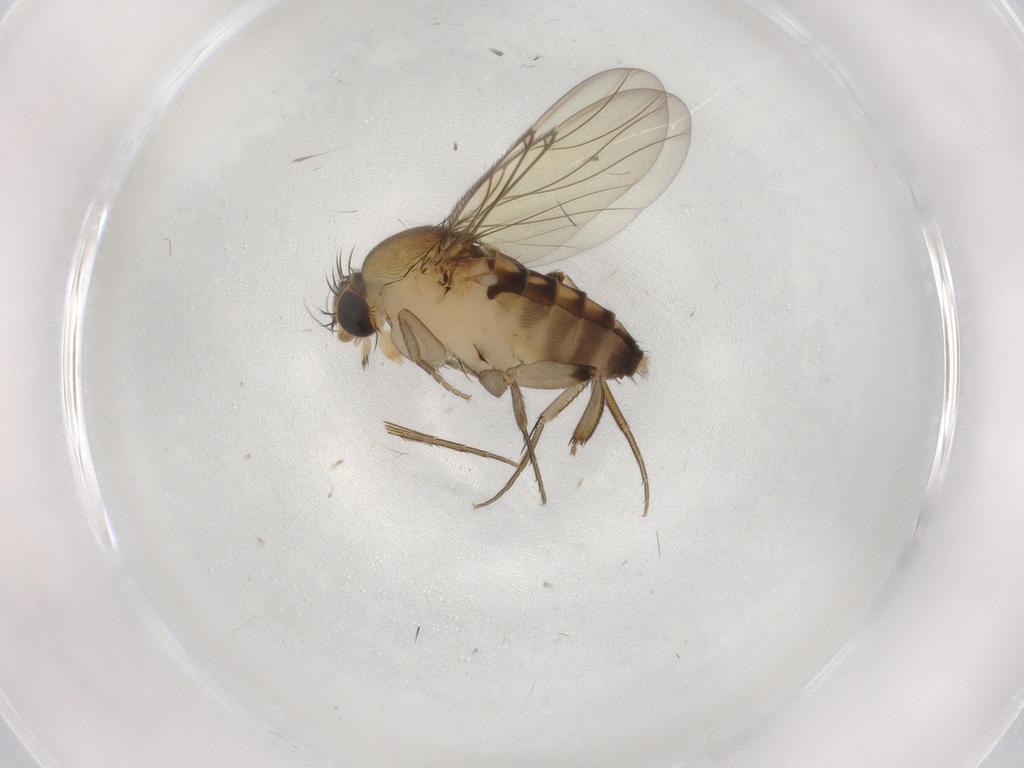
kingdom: Animalia
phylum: Arthropoda
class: Insecta
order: Diptera
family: Phoridae
